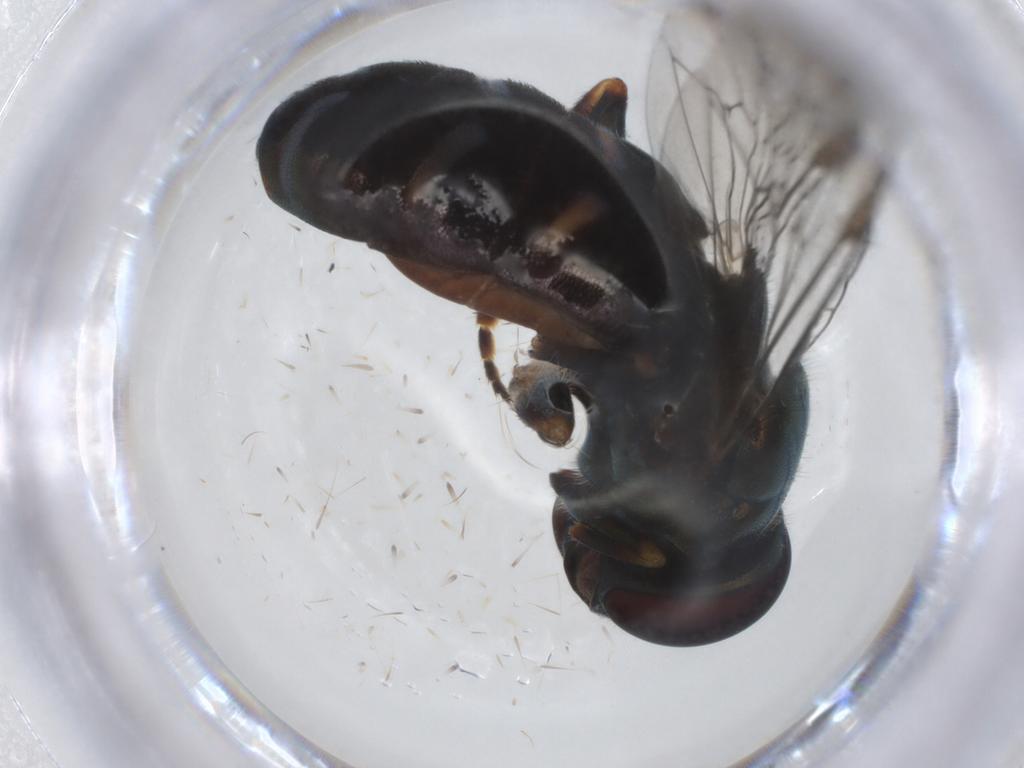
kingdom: Animalia
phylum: Arthropoda
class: Insecta
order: Diptera
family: Syrphidae
